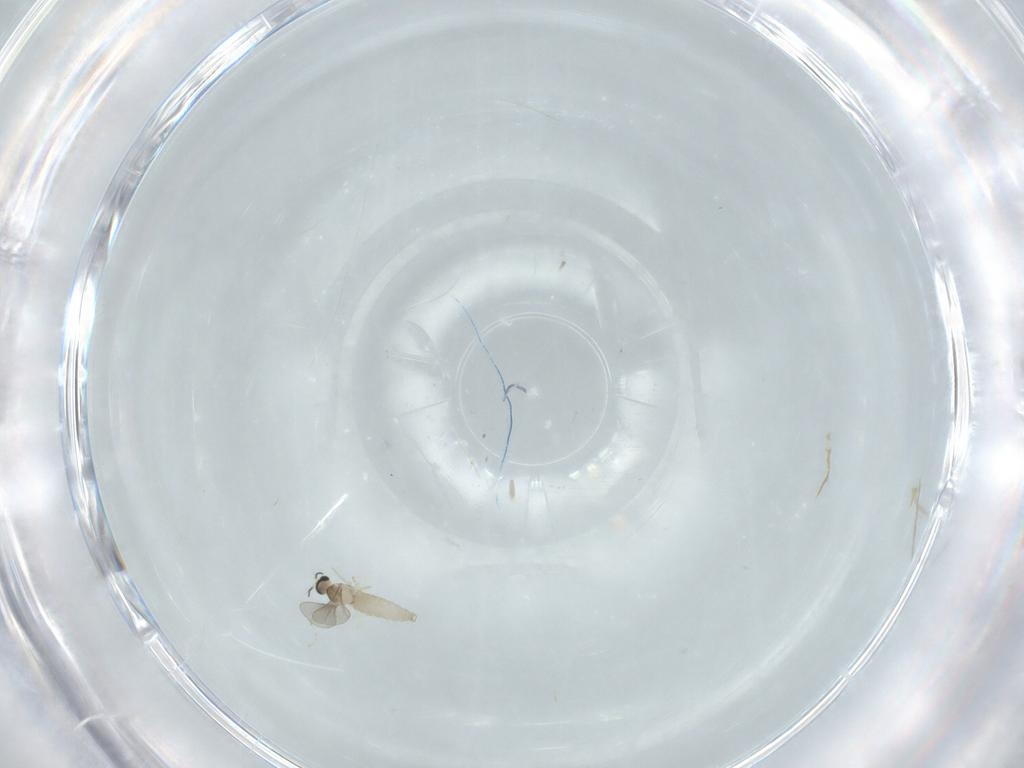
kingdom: Animalia
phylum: Arthropoda
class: Insecta
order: Diptera
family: Cecidomyiidae
